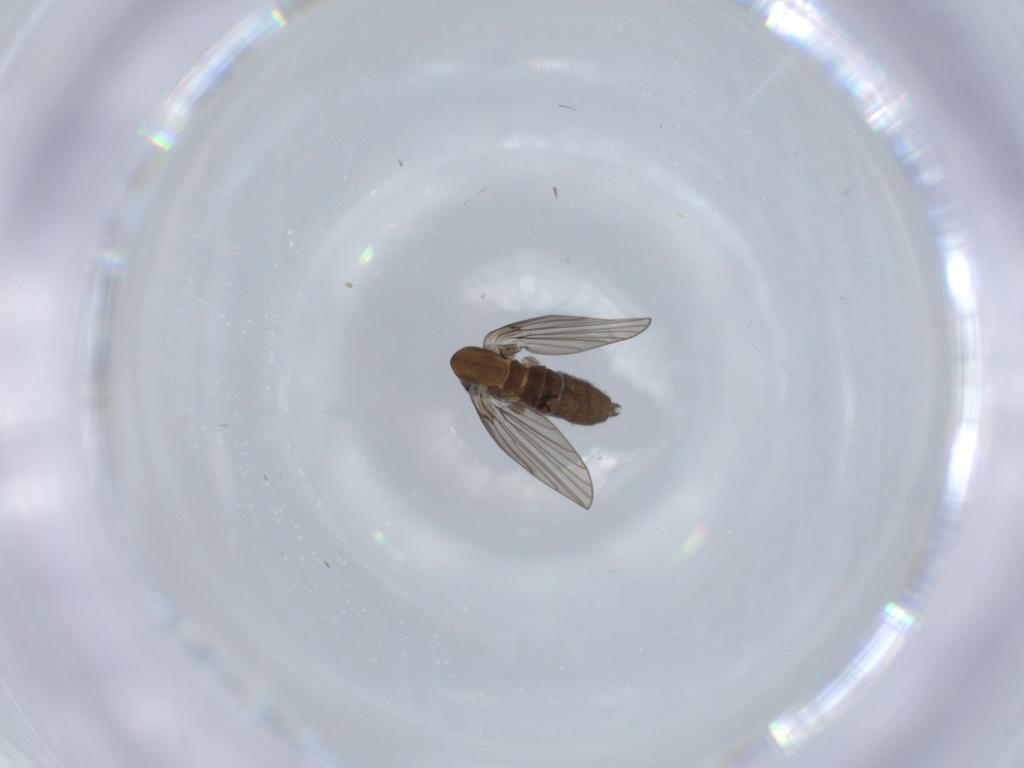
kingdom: Animalia
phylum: Arthropoda
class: Insecta
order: Diptera
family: Psychodidae
